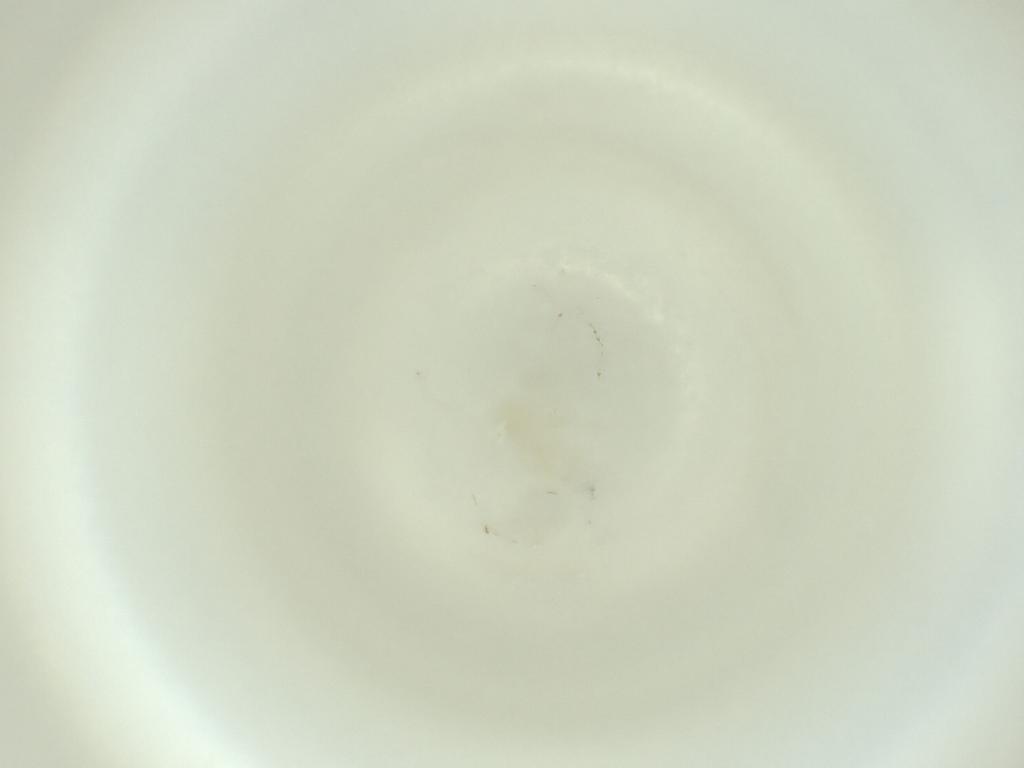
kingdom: Animalia
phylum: Arthropoda
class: Insecta
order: Diptera
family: Cecidomyiidae
